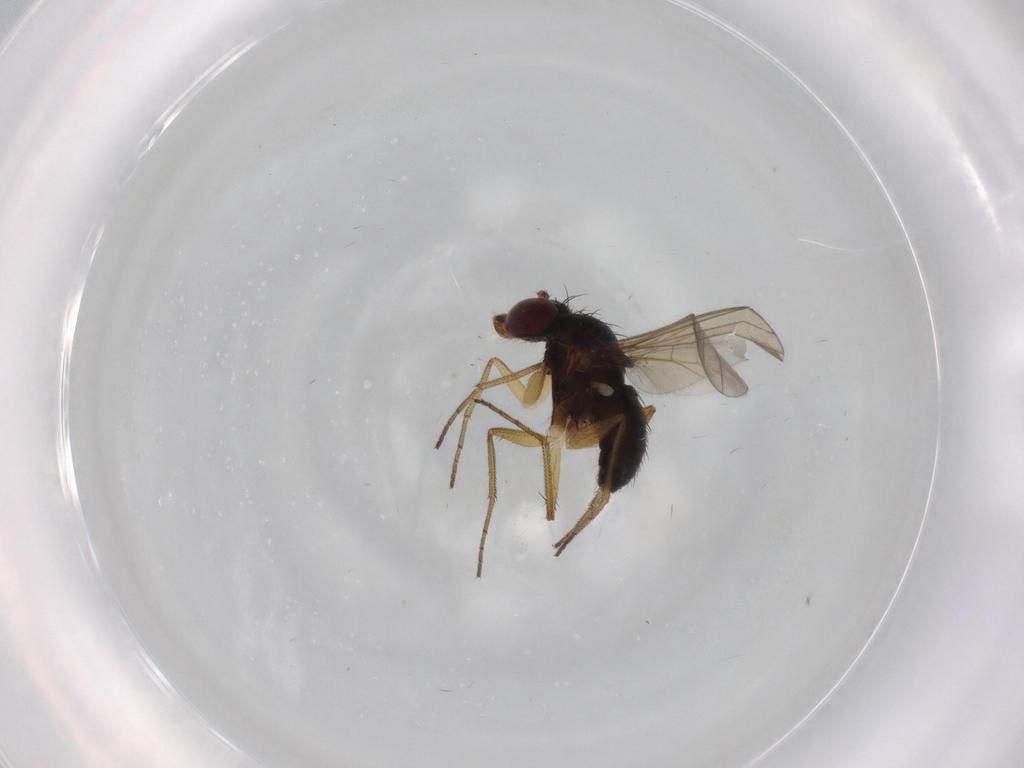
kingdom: Animalia
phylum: Arthropoda
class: Insecta
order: Diptera
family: Dolichopodidae
